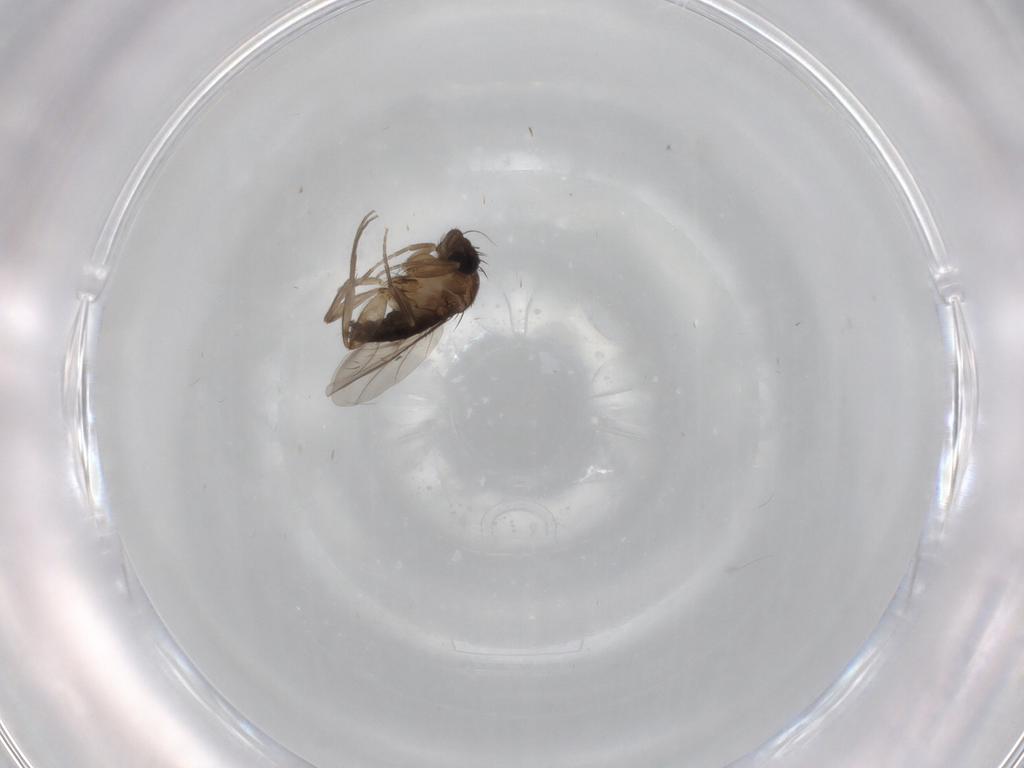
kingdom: Animalia
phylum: Arthropoda
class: Insecta
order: Diptera
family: Phoridae
